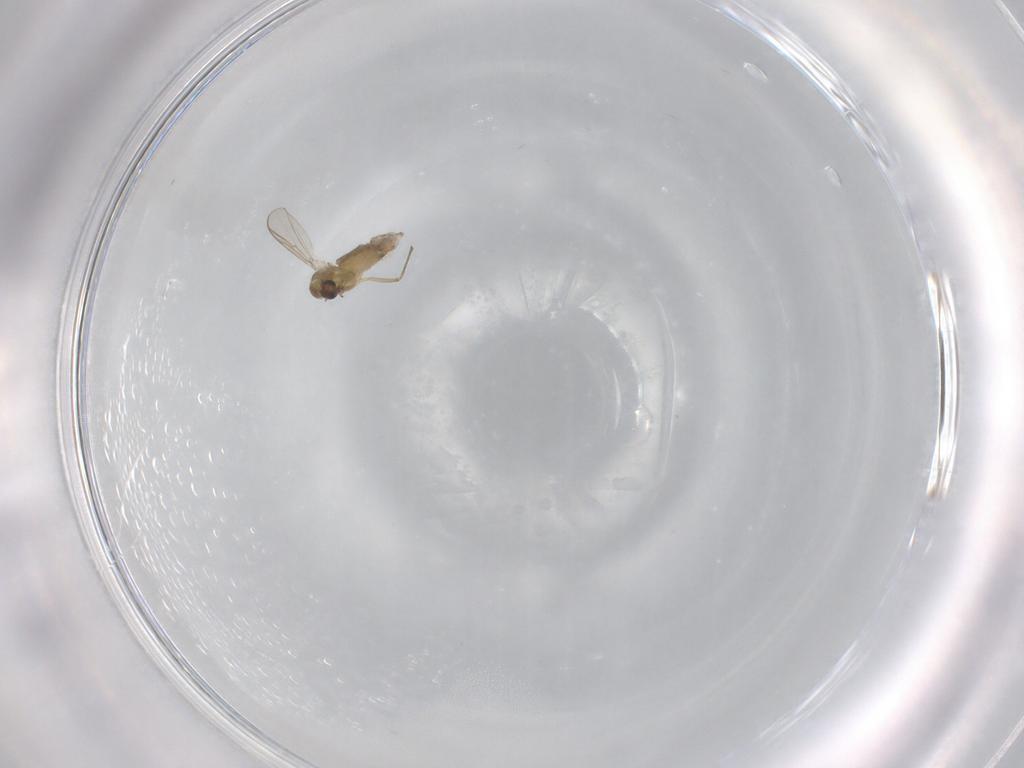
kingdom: Animalia
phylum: Arthropoda
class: Insecta
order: Diptera
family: Chironomidae
